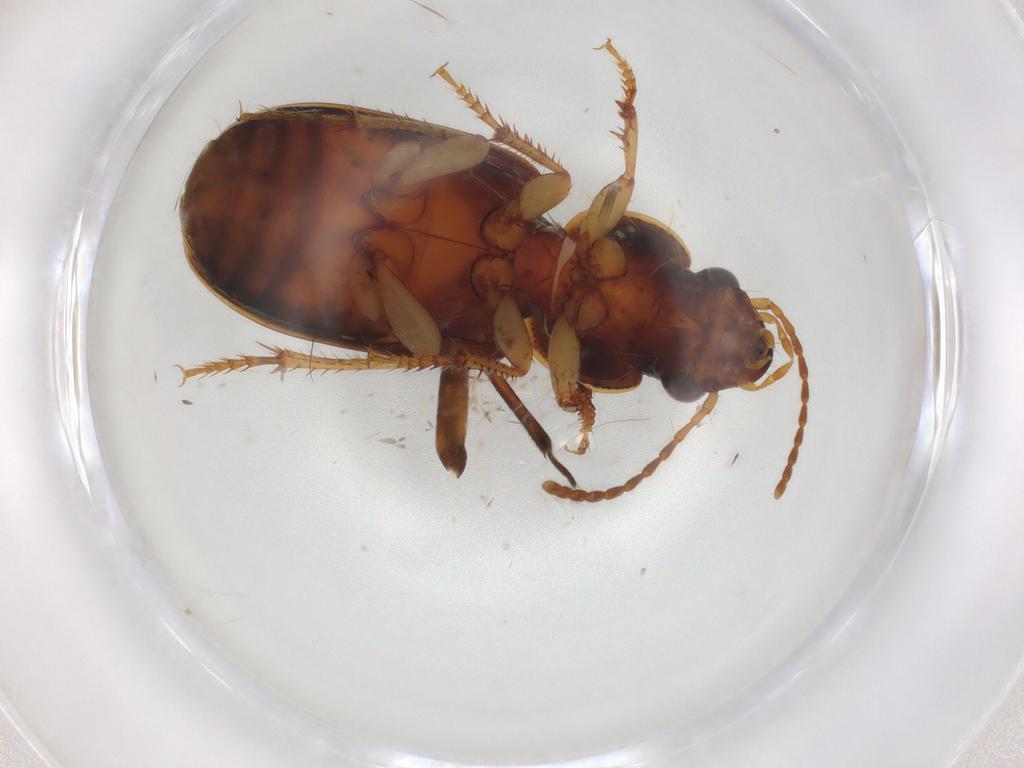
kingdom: Animalia
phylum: Arthropoda
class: Insecta
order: Coleoptera
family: Carabidae
